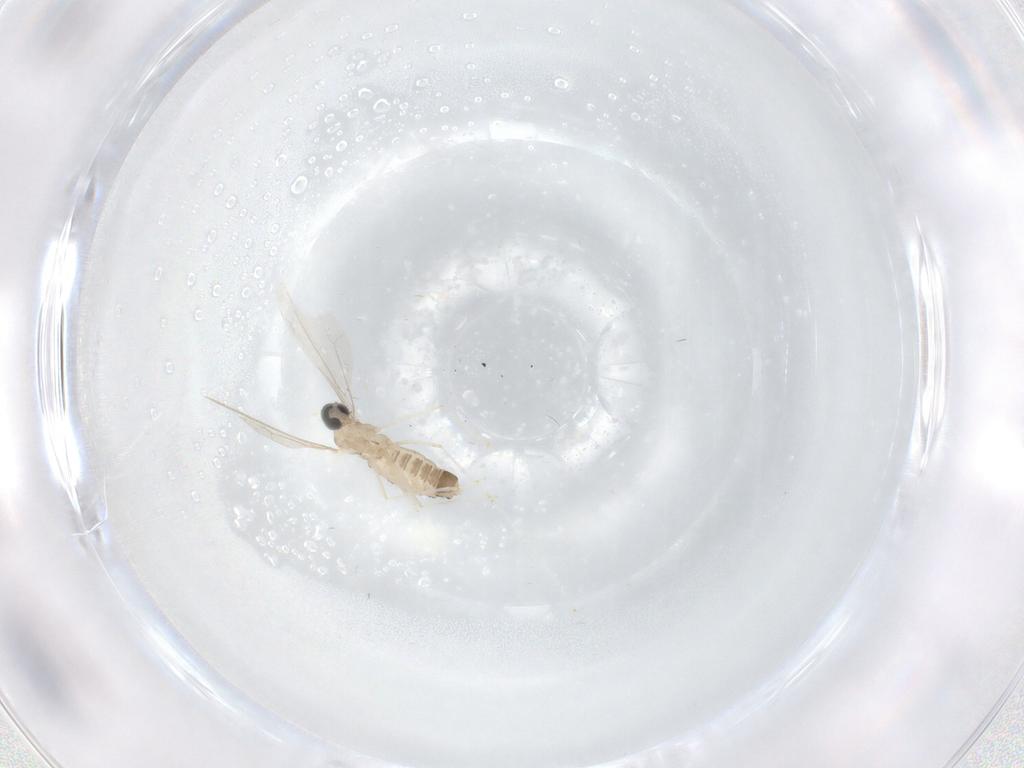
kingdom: Animalia
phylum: Arthropoda
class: Insecta
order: Diptera
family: Cecidomyiidae
